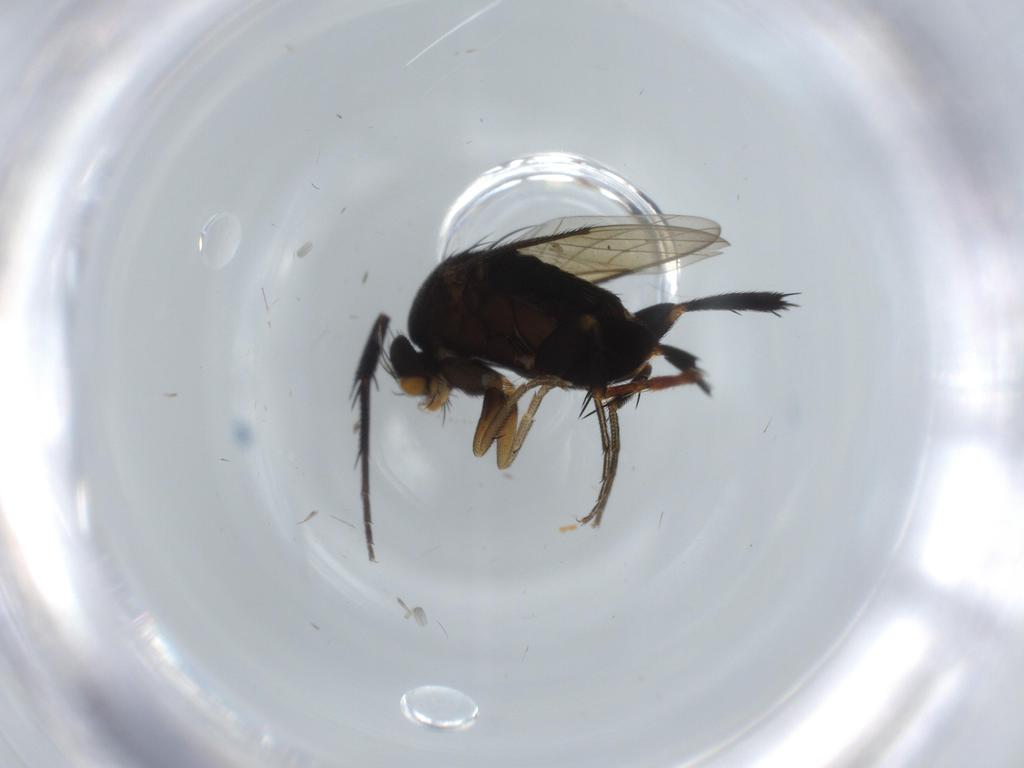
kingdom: Animalia
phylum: Arthropoda
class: Insecta
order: Diptera
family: Phoridae
